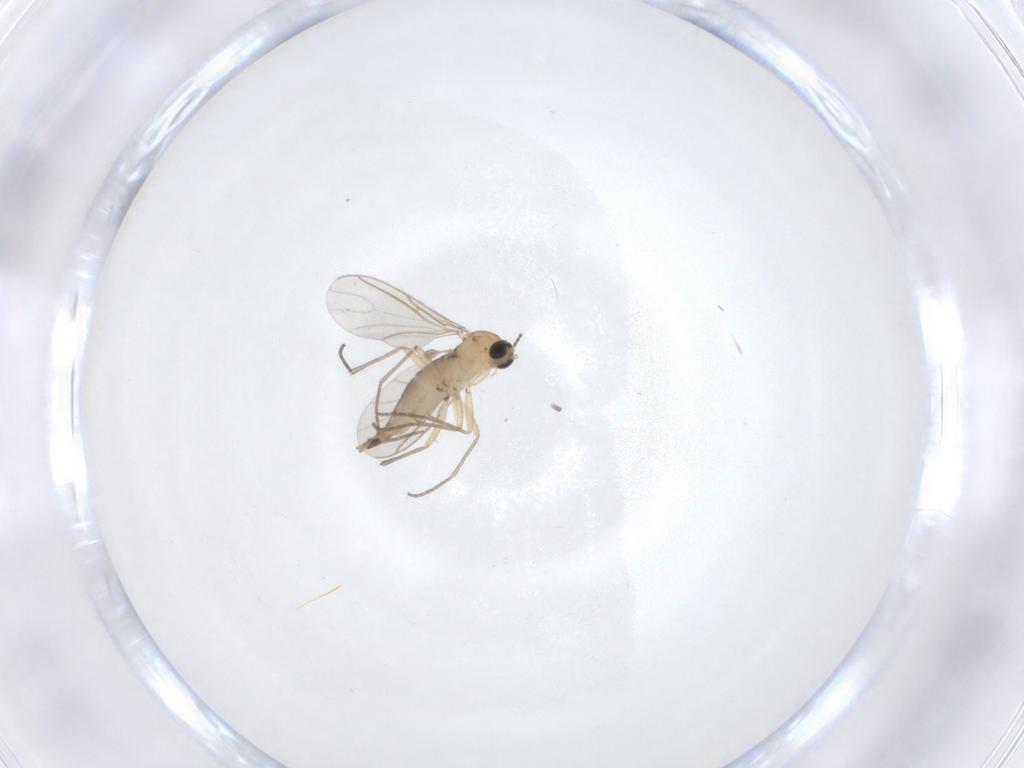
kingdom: Animalia
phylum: Arthropoda
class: Insecta
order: Diptera
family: Sciaridae
